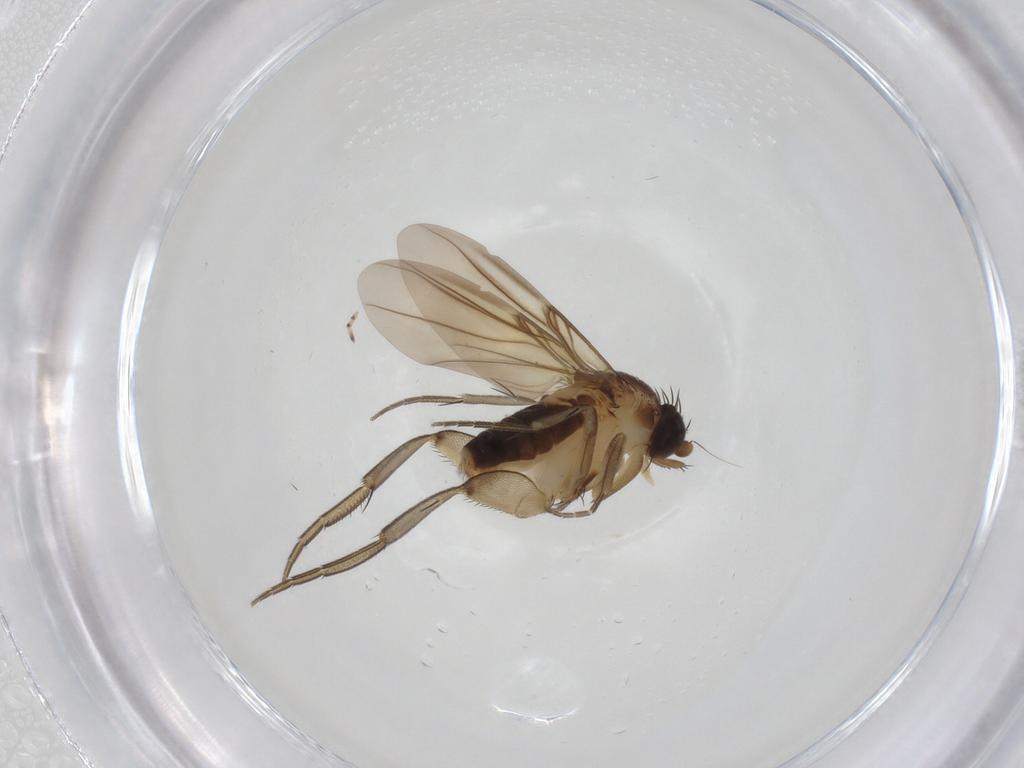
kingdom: Animalia
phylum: Arthropoda
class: Insecta
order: Diptera
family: Phoridae
